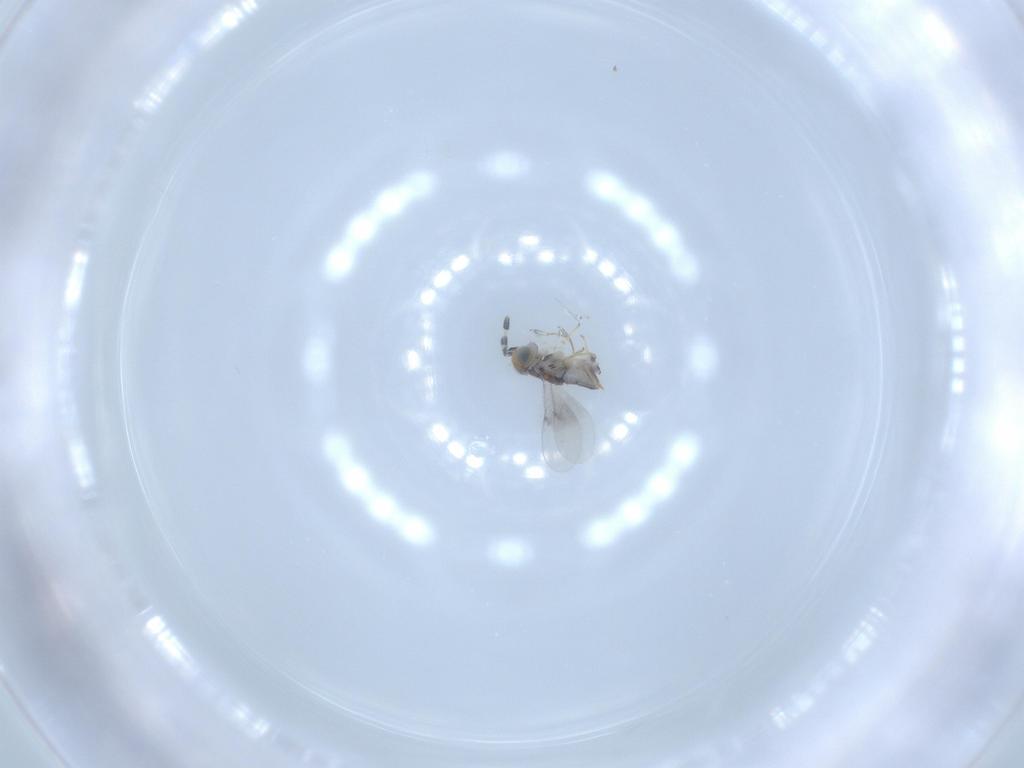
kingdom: Animalia
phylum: Arthropoda
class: Insecta
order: Hymenoptera
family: Encyrtidae
